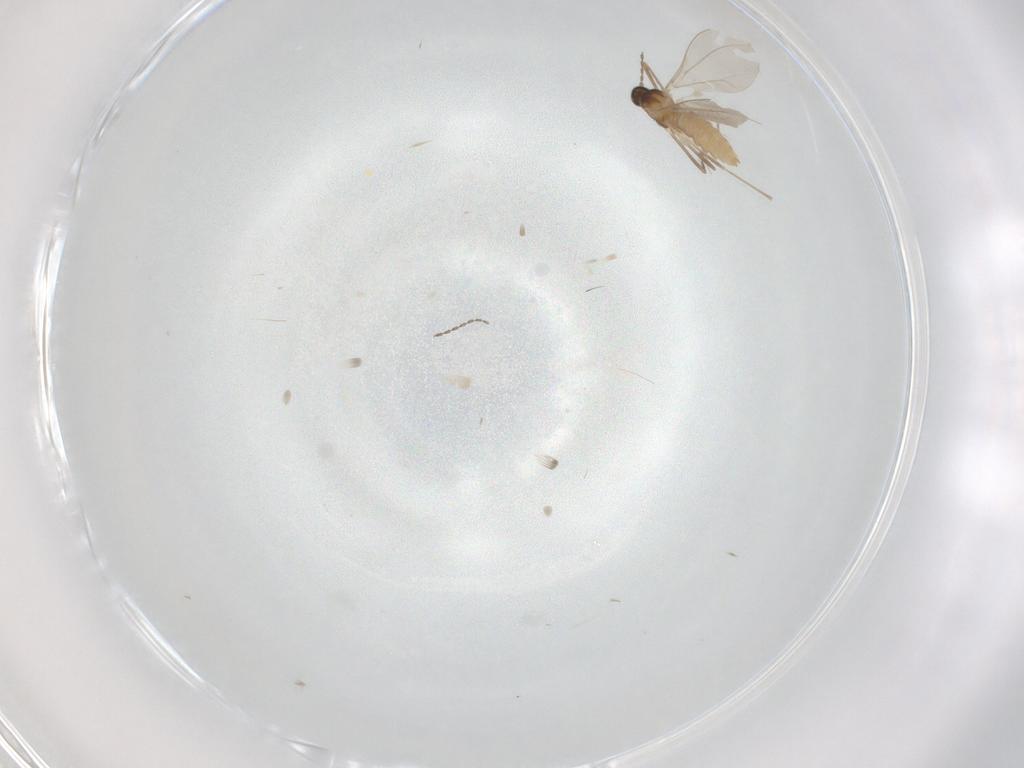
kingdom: Animalia
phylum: Arthropoda
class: Insecta
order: Diptera
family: Cecidomyiidae
